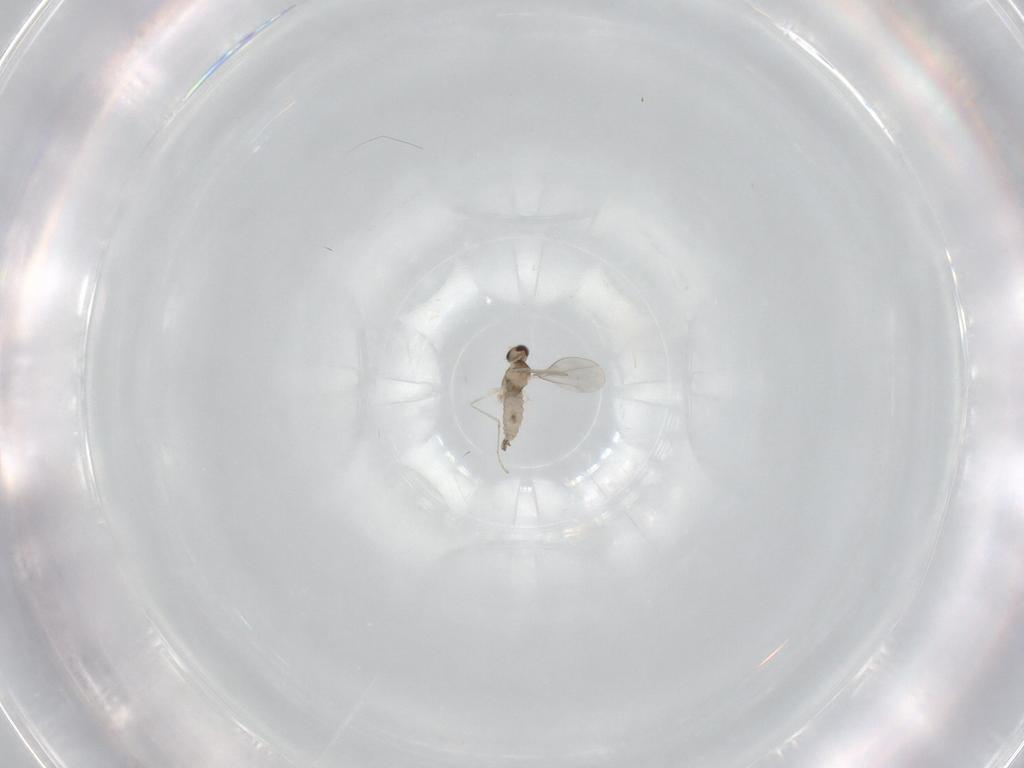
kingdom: Animalia
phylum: Arthropoda
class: Insecta
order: Diptera
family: Cecidomyiidae
